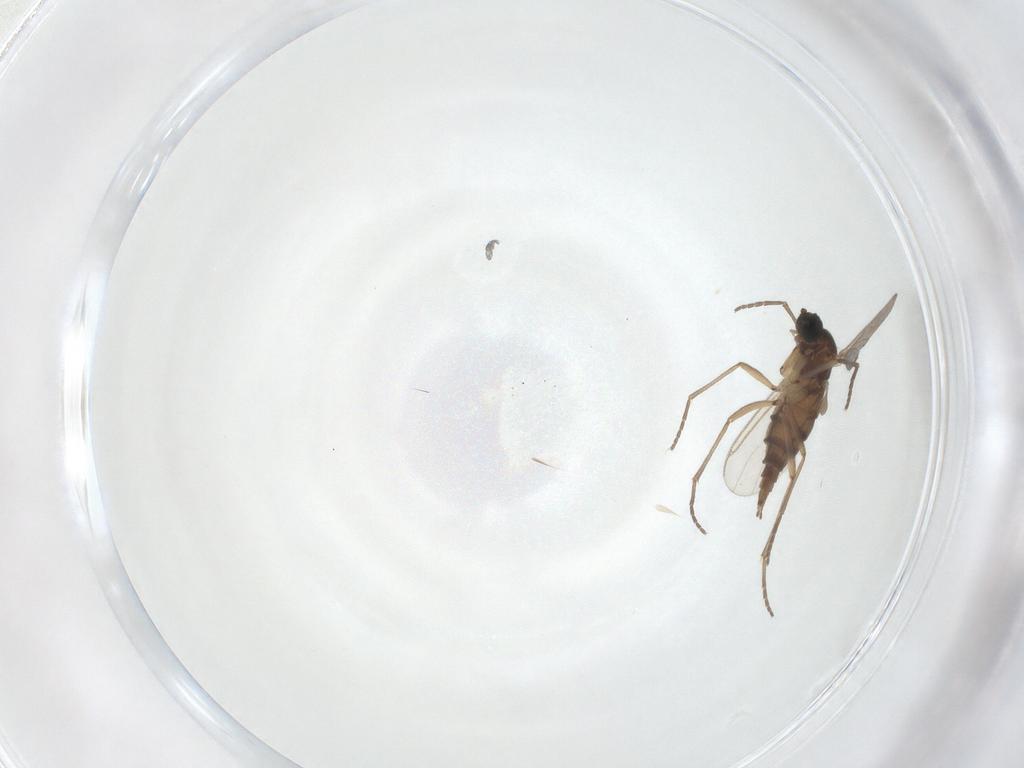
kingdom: Animalia
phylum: Arthropoda
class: Insecta
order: Diptera
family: Sciaridae
